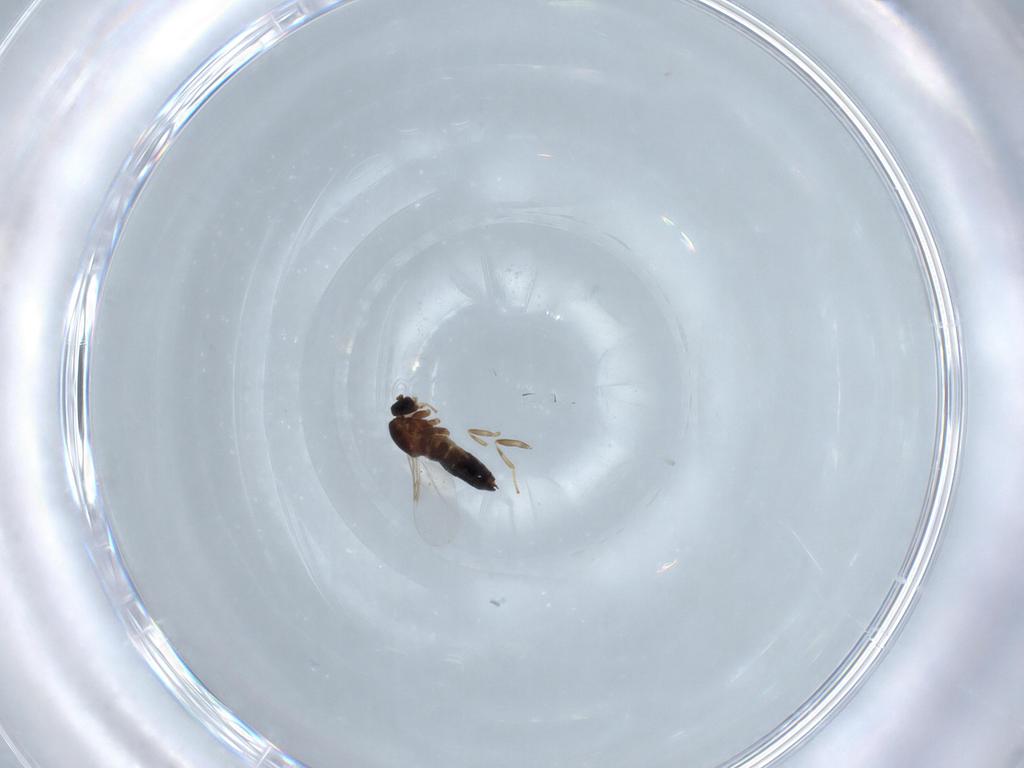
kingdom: Animalia
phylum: Arthropoda
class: Insecta
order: Diptera
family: Scatopsidae
